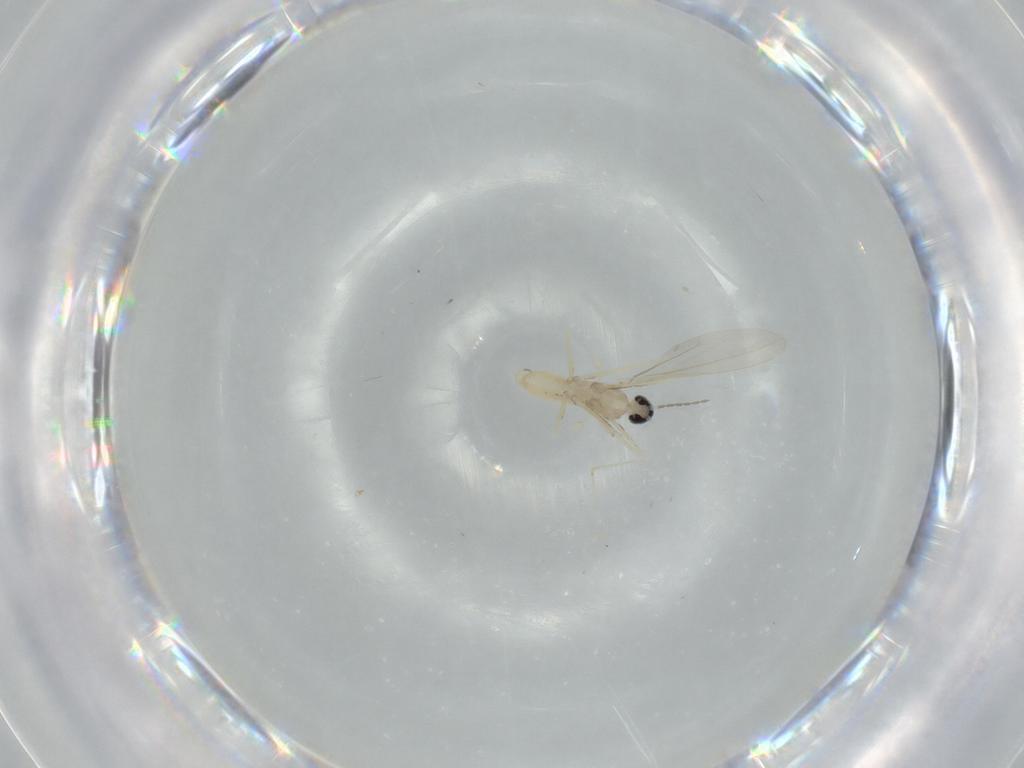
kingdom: Animalia
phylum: Arthropoda
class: Insecta
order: Diptera
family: Cecidomyiidae
